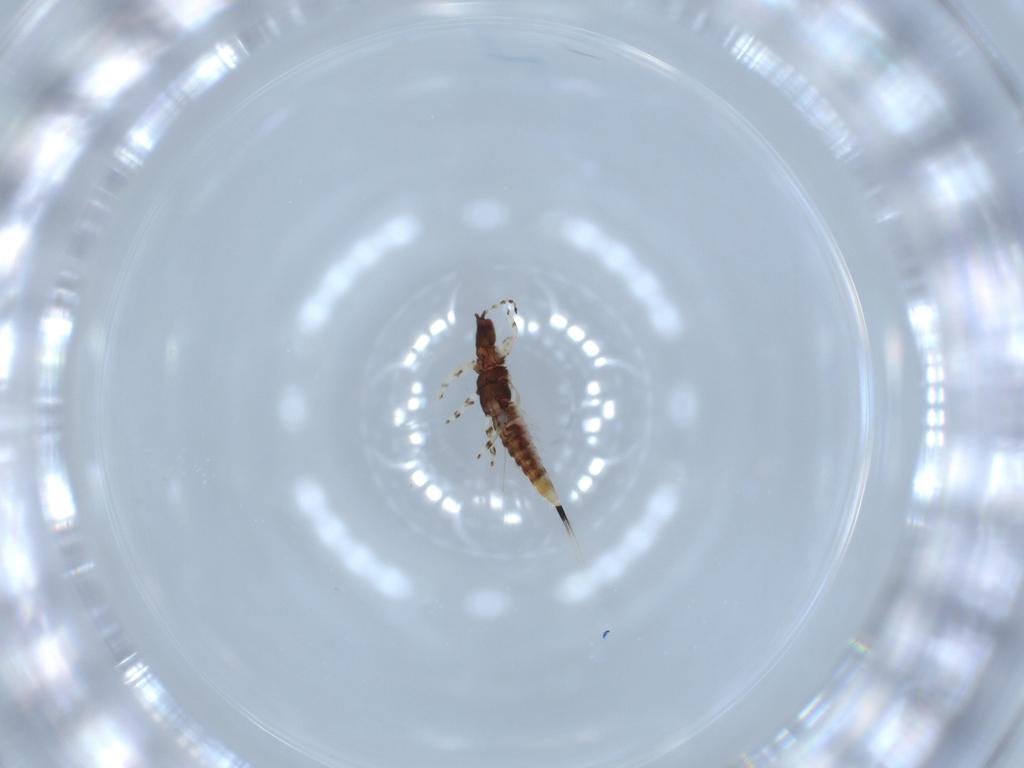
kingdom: Animalia
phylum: Arthropoda
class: Insecta
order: Thysanoptera
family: Phlaeothripidae
